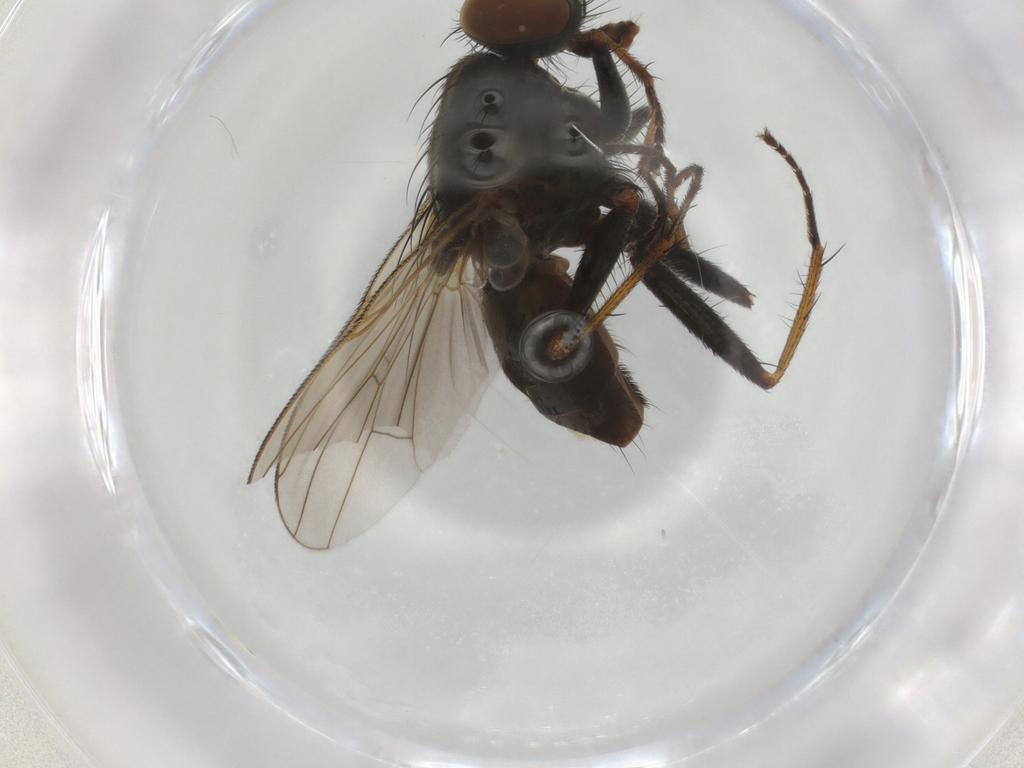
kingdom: Animalia
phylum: Arthropoda
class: Insecta
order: Diptera
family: Muscidae
